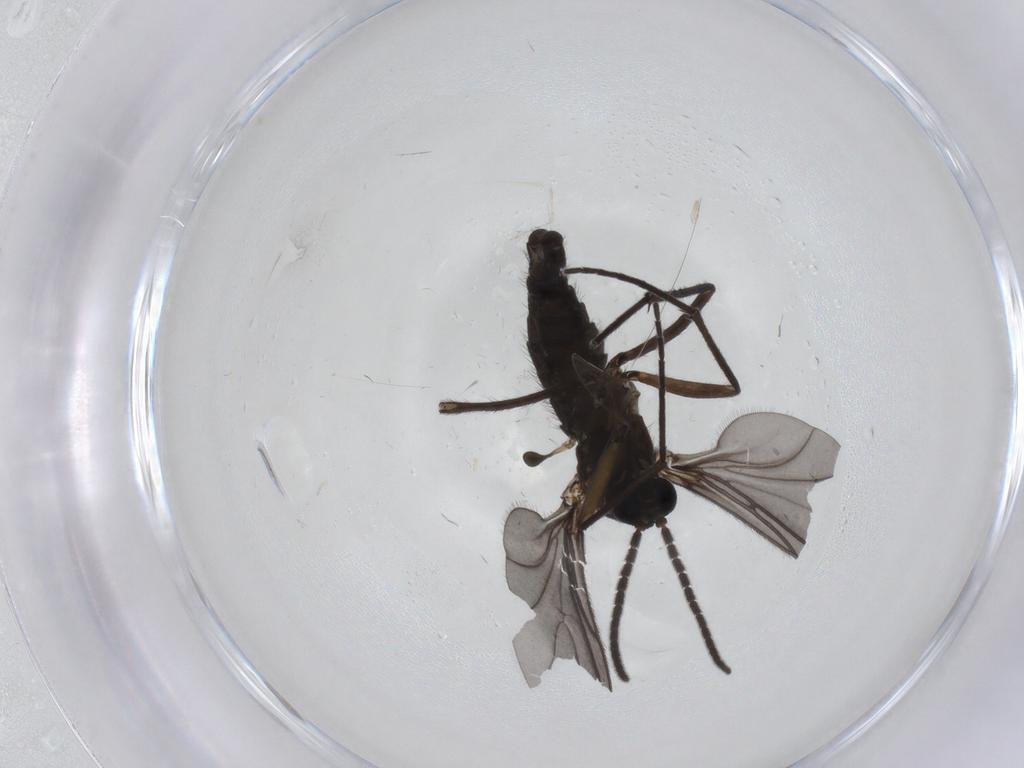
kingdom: Animalia
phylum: Arthropoda
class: Insecta
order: Diptera
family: Sciaridae
